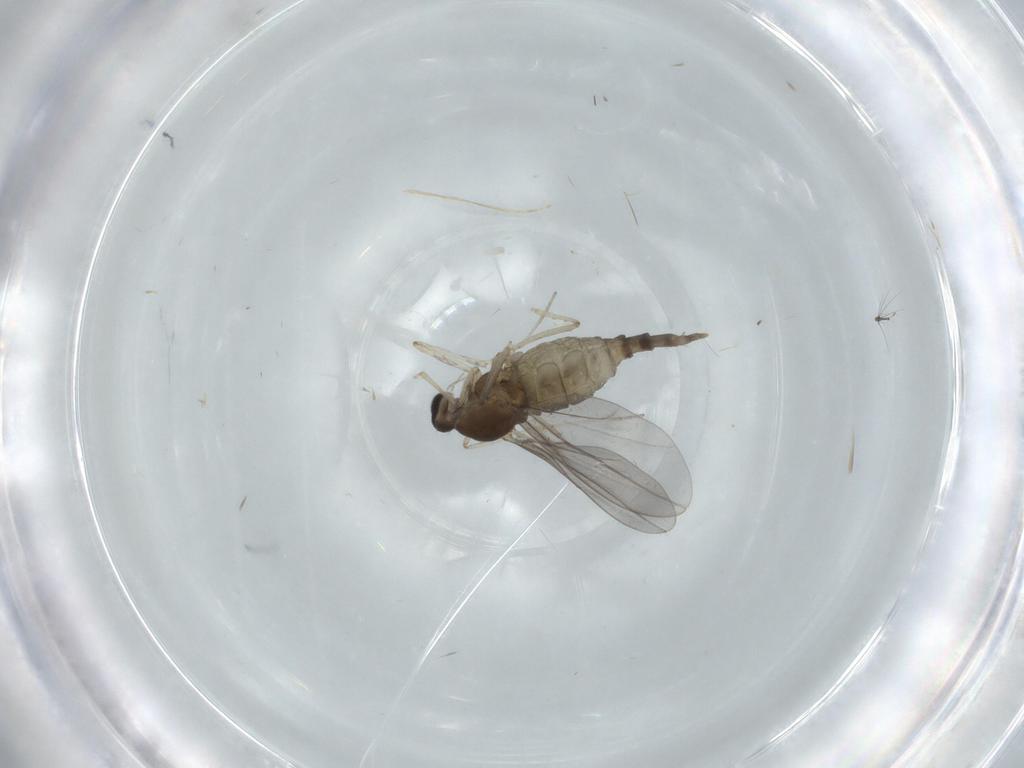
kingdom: Animalia
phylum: Arthropoda
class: Insecta
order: Diptera
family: Cecidomyiidae
